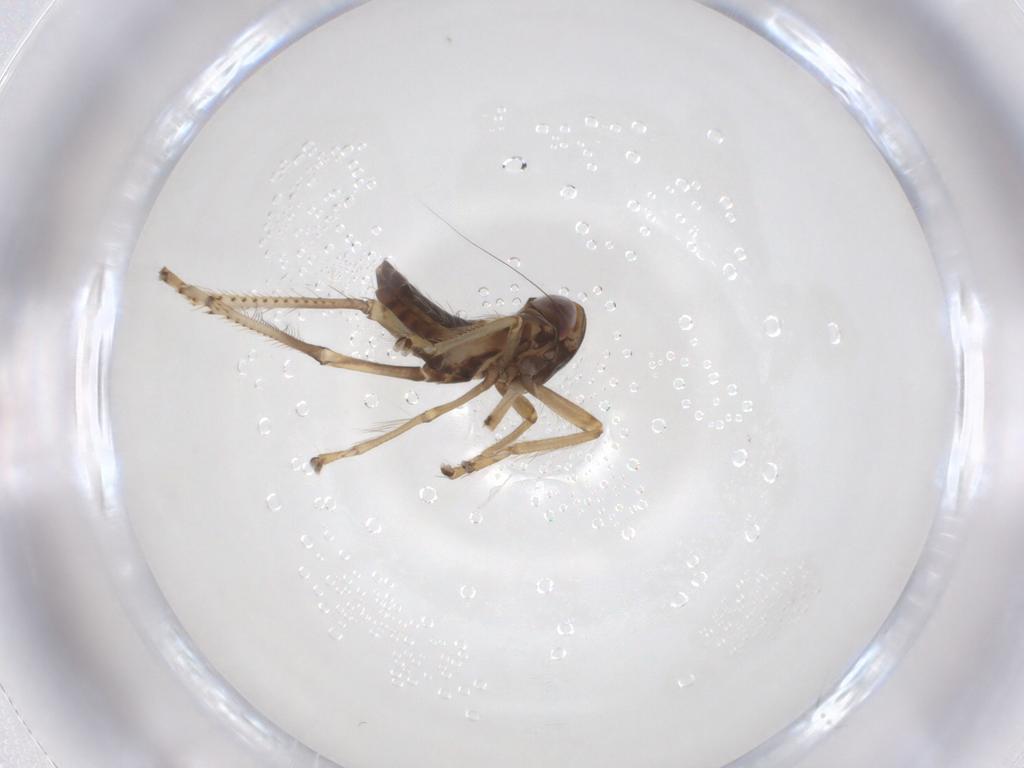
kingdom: Animalia
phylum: Arthropoda
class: Insecta
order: Hemiptera
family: Cicadellidae
